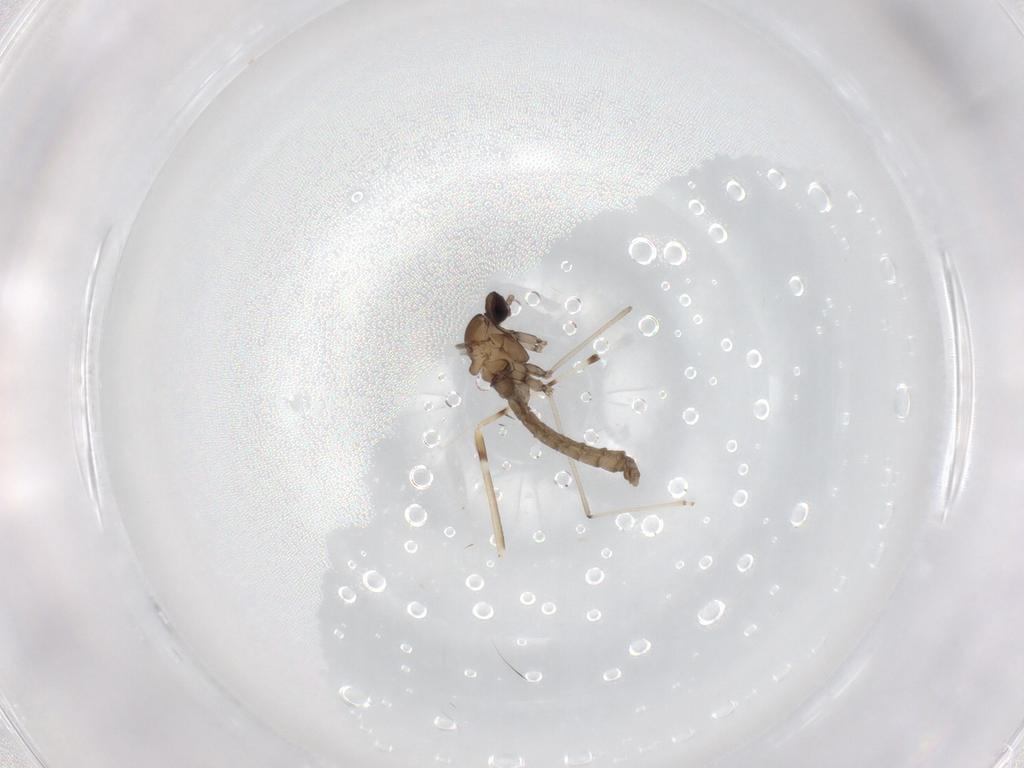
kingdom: Animalia
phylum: Arthropoda
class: Insecta
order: Diptera
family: Cecidomyiidae
